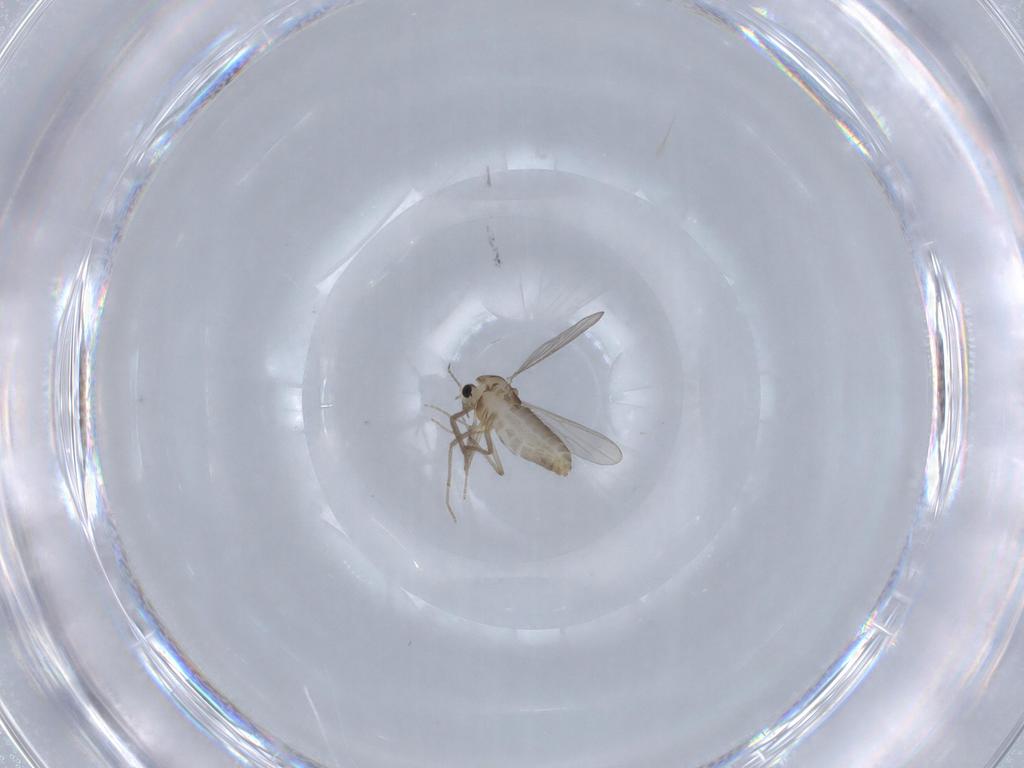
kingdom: Animalia
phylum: Arthropoda
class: Insecta
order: Diptera
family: Chironomidae
